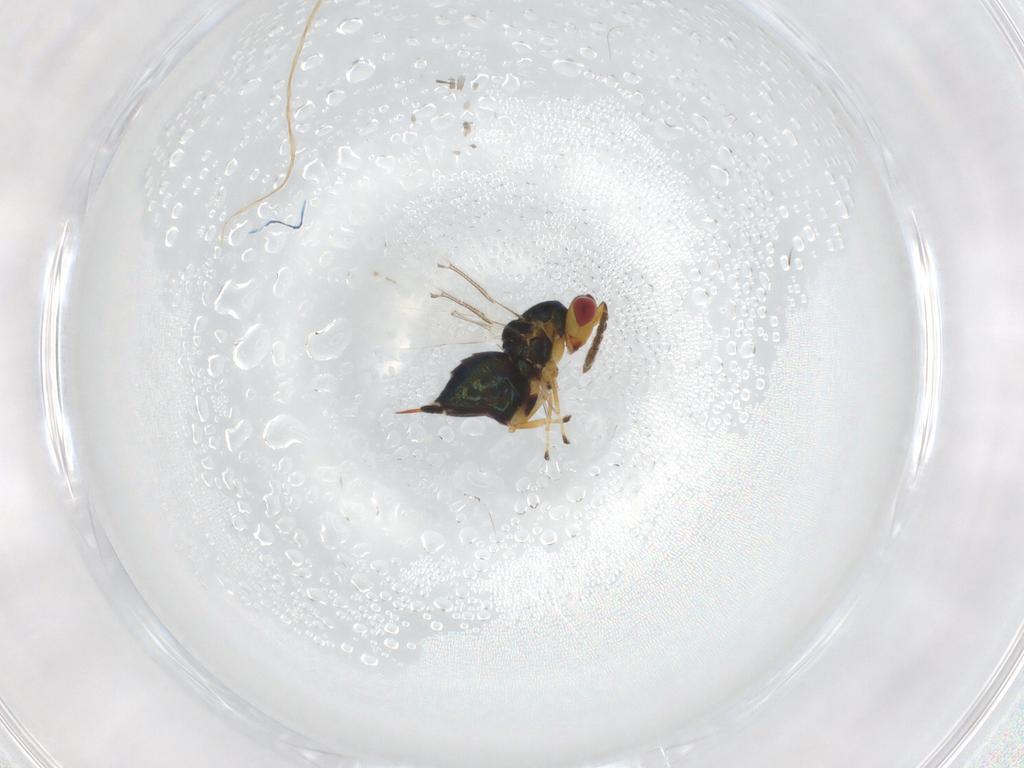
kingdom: Animalia
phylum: Arthropoda
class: Insecta
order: Hymenoptera
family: Eulophidae
